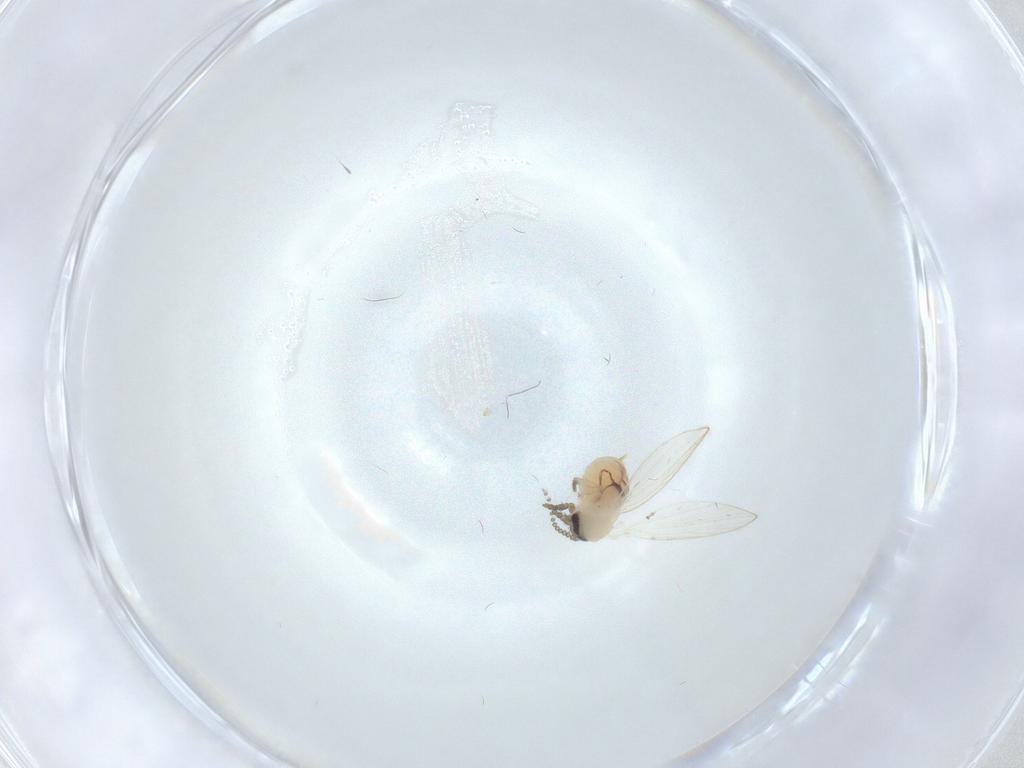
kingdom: Animalia
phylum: Arthropoda
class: Insecta
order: Diptera
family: Psychodidae
